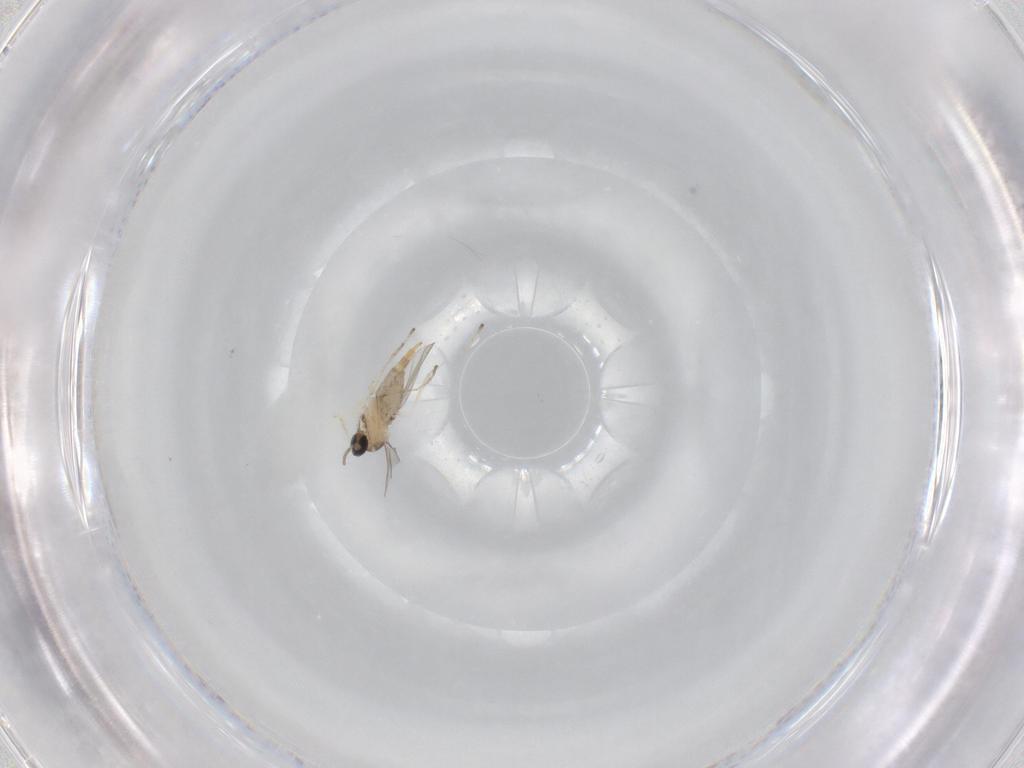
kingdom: Animalia
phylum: Arthropoda
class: Insecta
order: Diptera
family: Cecidomyiidae
